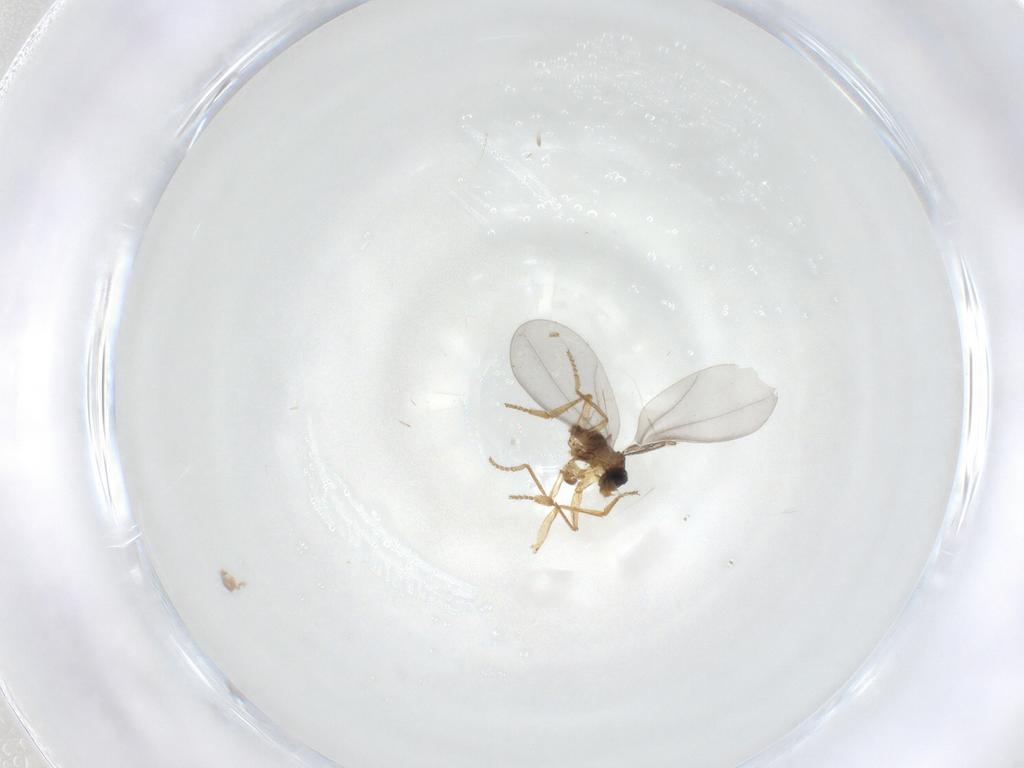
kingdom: Animalia
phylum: Arthropoda
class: Insecta
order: Diptera
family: Phoridae
